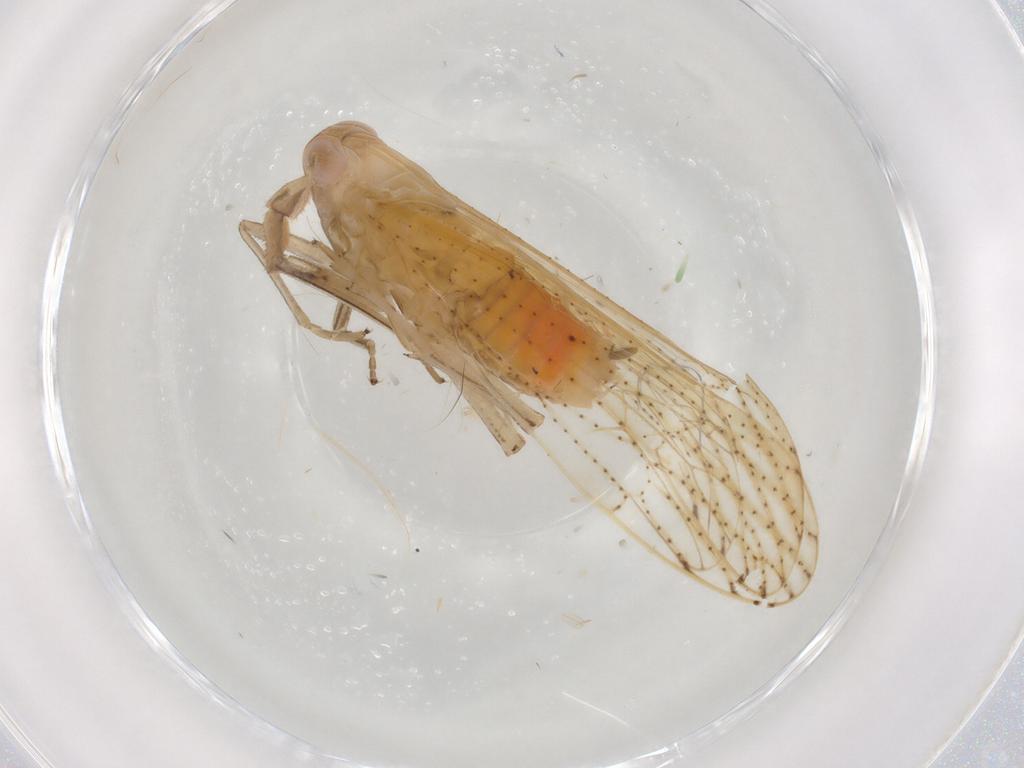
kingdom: Animalia
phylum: Arthropoda
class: Insecta
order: Hemiptera
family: Delphacidae
